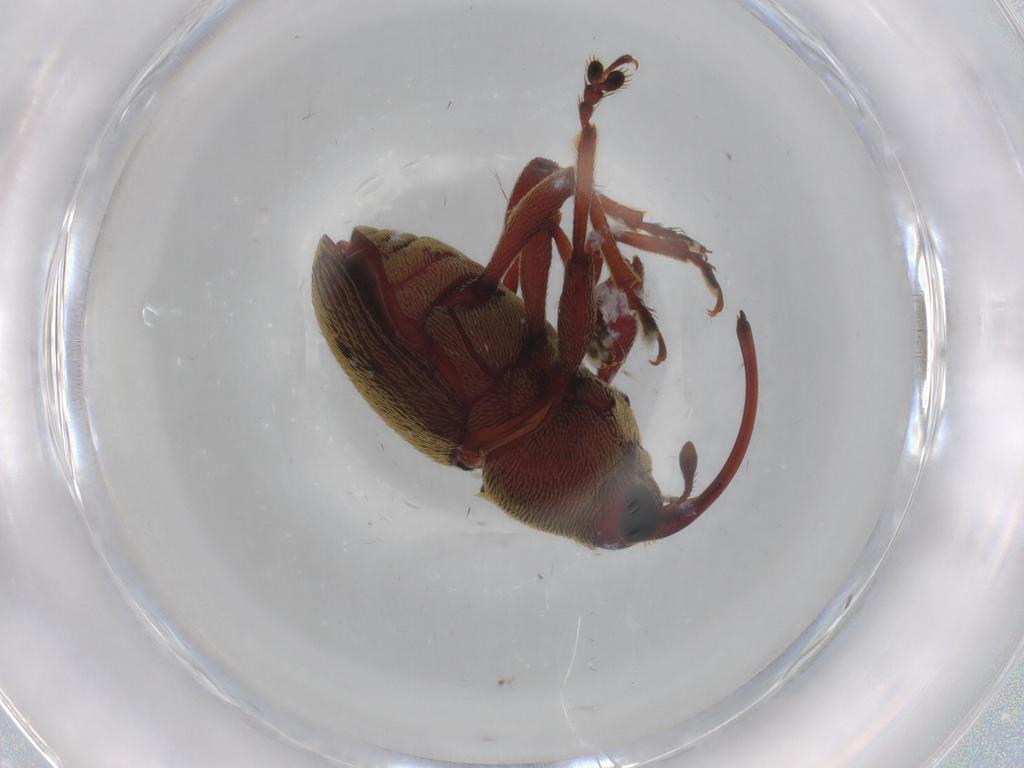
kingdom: Animalia
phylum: Arthropoda
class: Insecta
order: Coleoptera
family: Curculionidae
